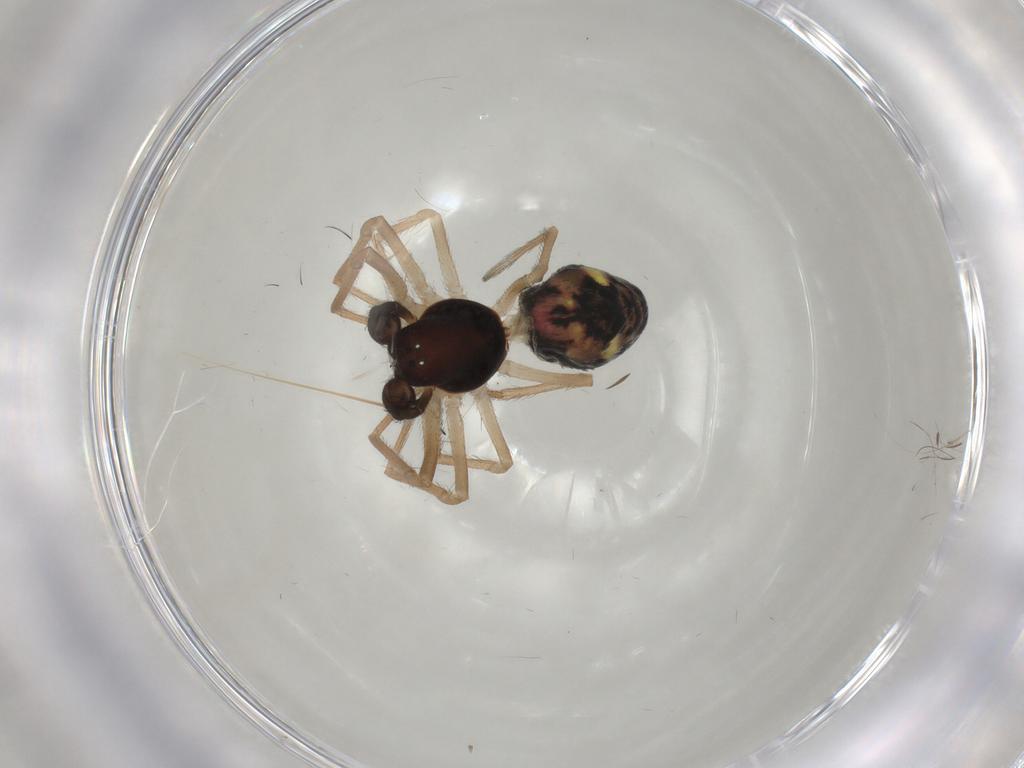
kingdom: Animalia
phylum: Arthropoda
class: Arachnida
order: Araneae
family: Dictynidae
